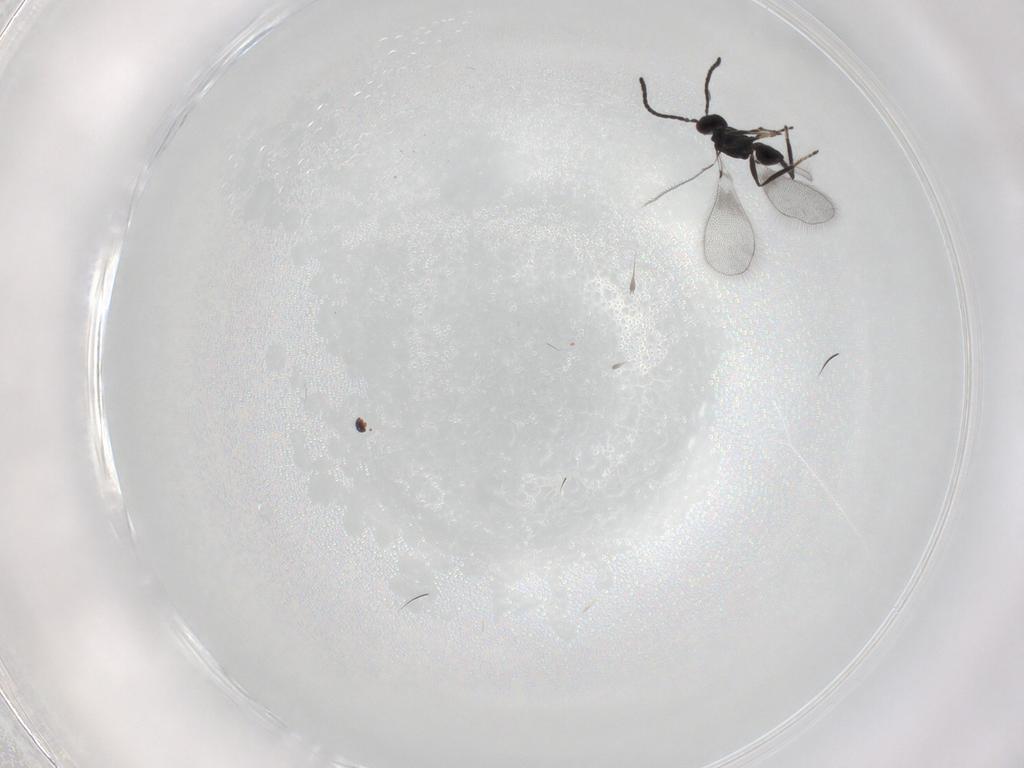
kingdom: Animalia
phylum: Arthropoda
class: Insecta
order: Hymenoptera
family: Mymaridae
